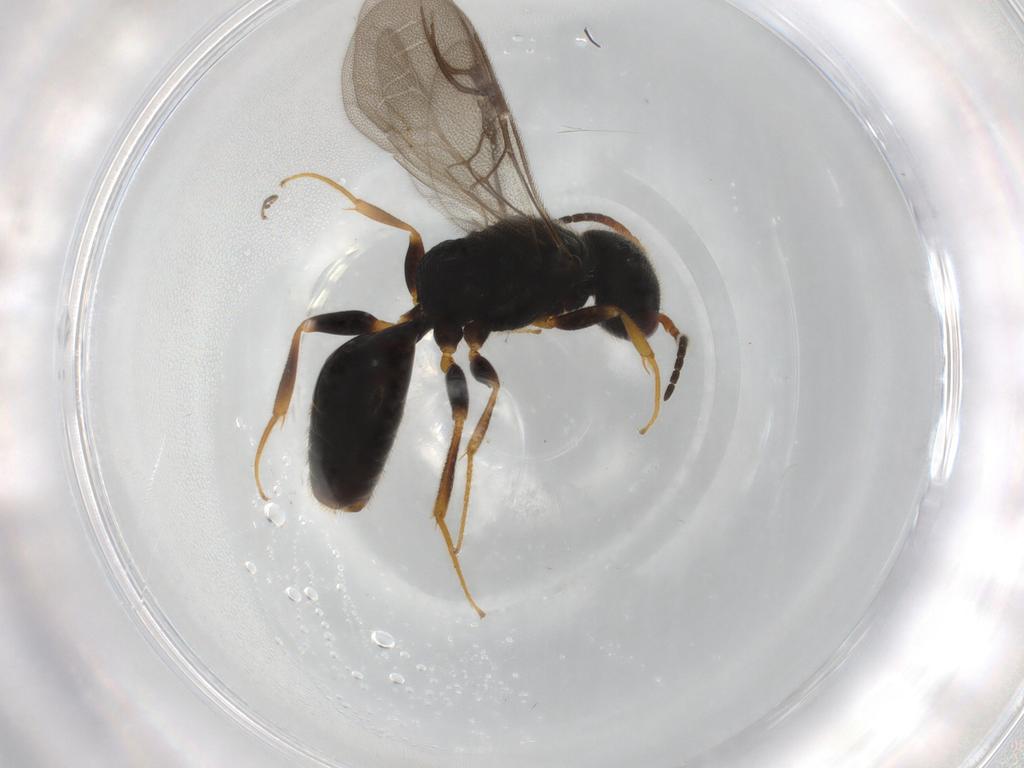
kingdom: Animalia
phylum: Arthropoda
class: Insecta
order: Hymenoptera
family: Bethylidae
